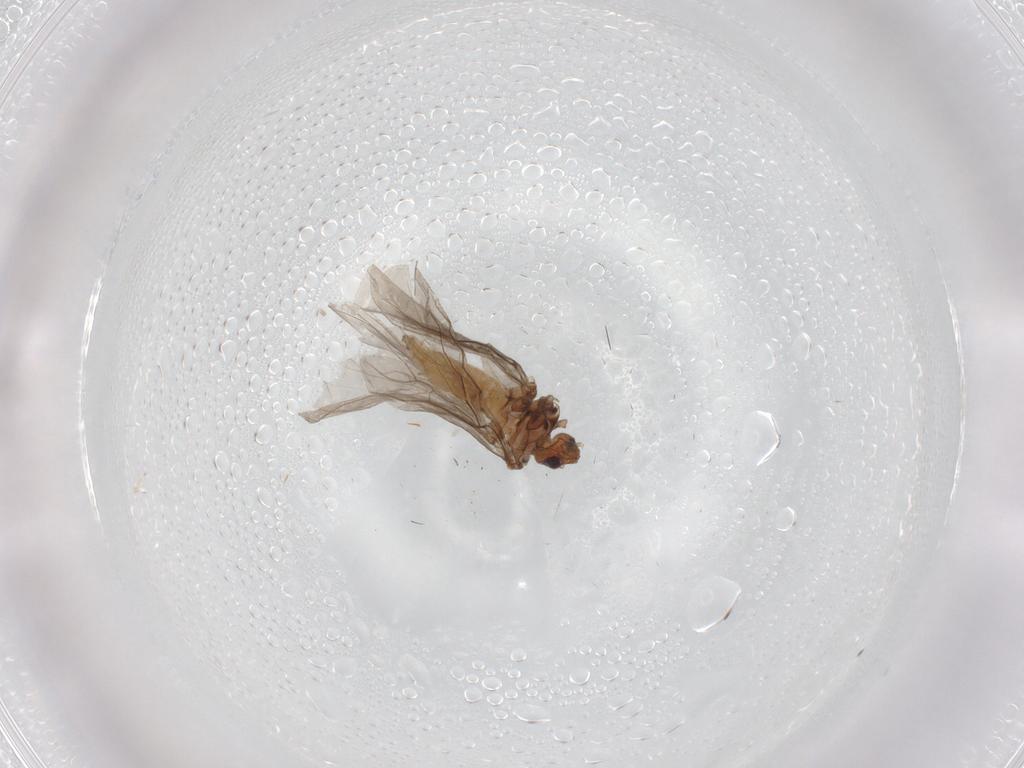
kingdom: Animalia
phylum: Arthropoda
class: Insecta
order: Neuroptera
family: Coniopterygidae
